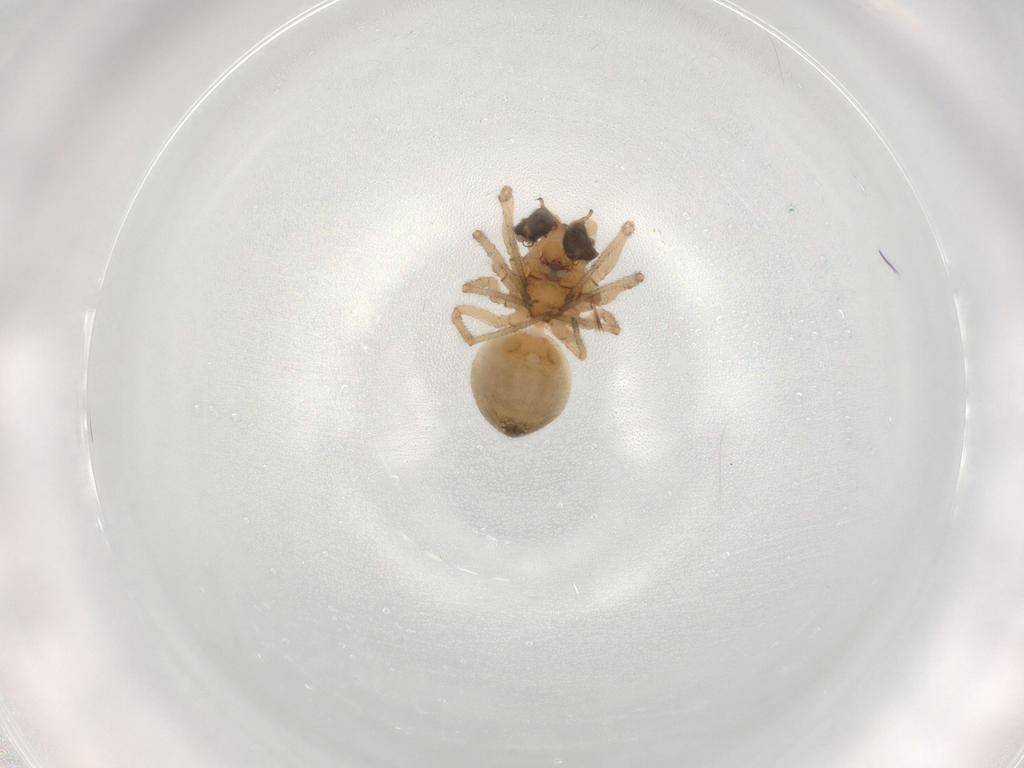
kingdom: Animalia
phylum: Arthropoda
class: Arachnida
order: Araneae
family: Linyphiidae
